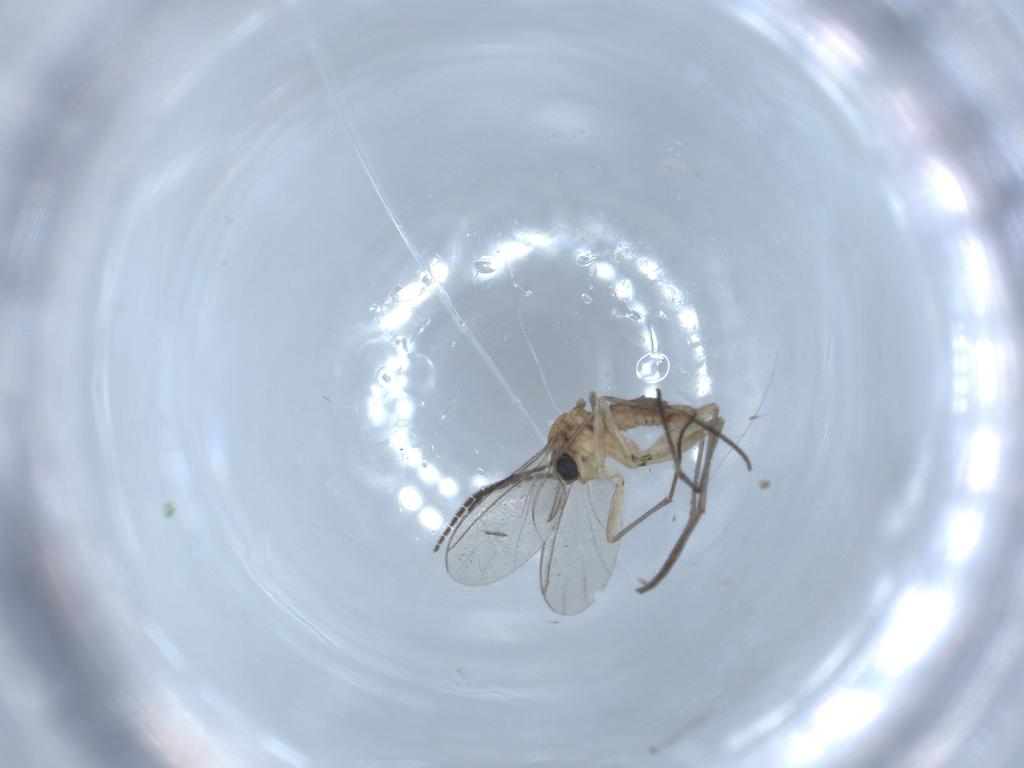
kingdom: Animalia
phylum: Arthropoda
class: Insecta
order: Diptera
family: Sciaridae
